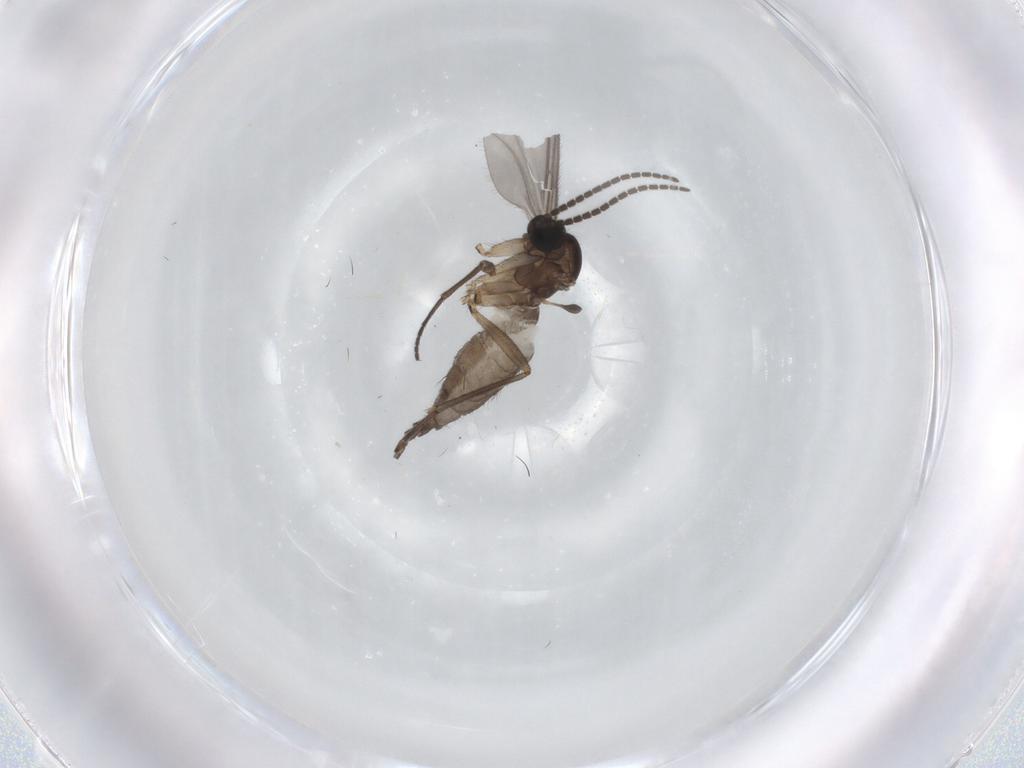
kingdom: Animalia
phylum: Arthropoda
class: Insecta
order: Diptera
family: Sciaridae
